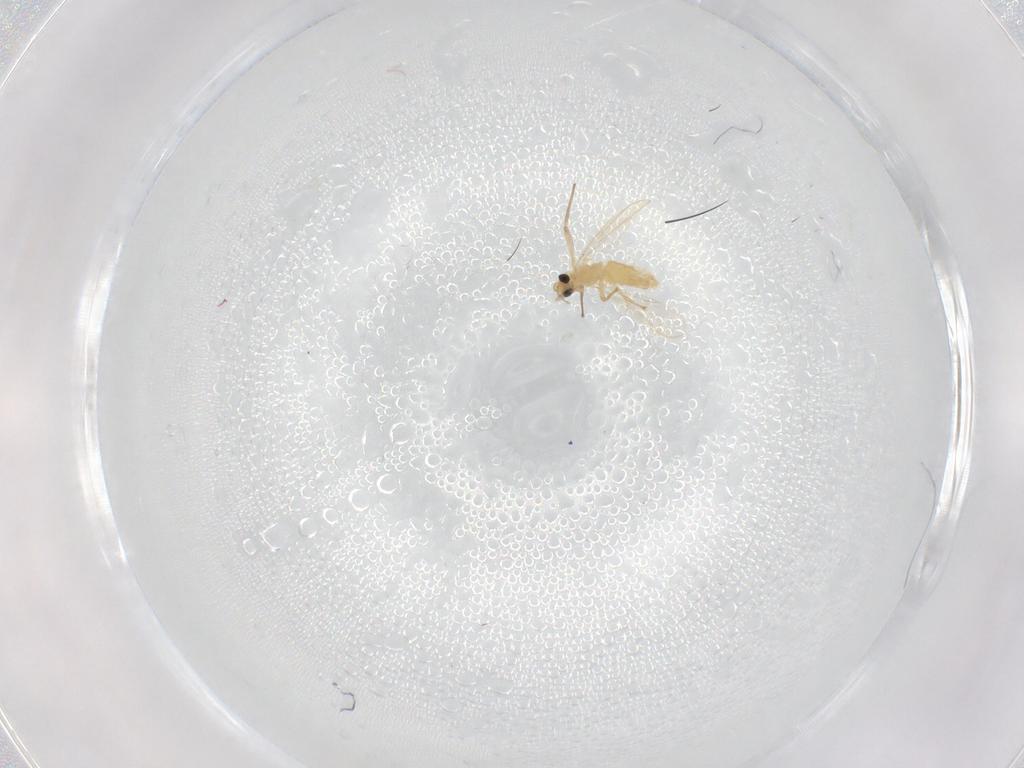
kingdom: Animalia
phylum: Arthropoda
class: Insecta
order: Diptera
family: Chironomidae
